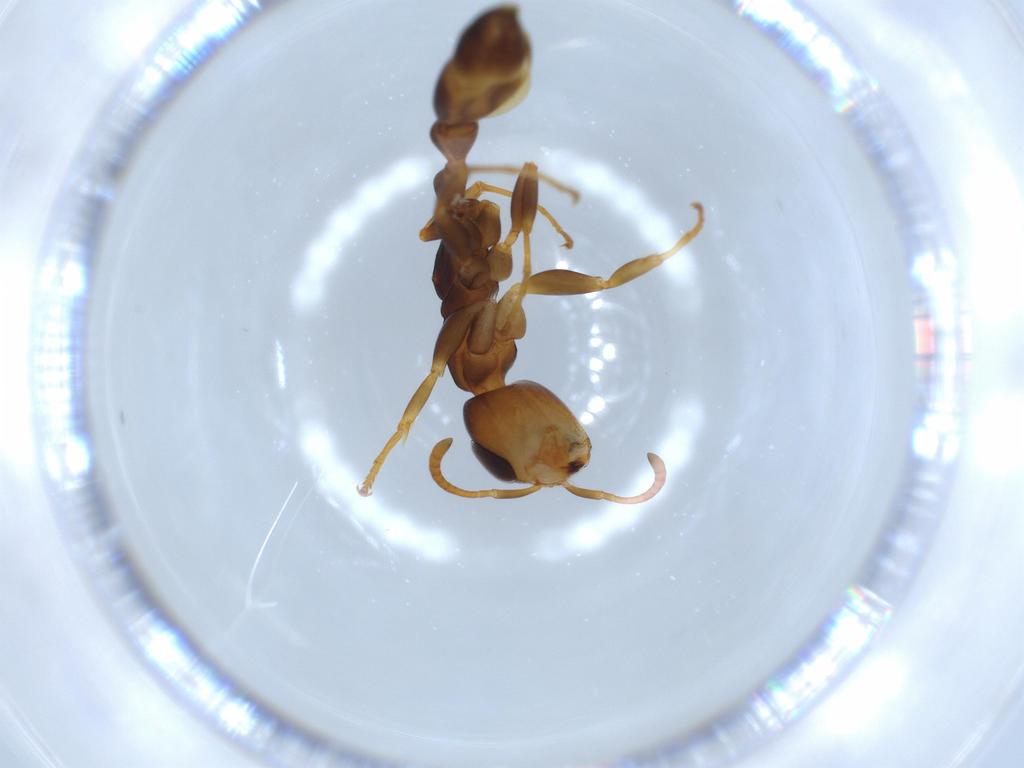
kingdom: Animalia
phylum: Arthropoda
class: Insecta
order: Hymenoptera
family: Formicidae
